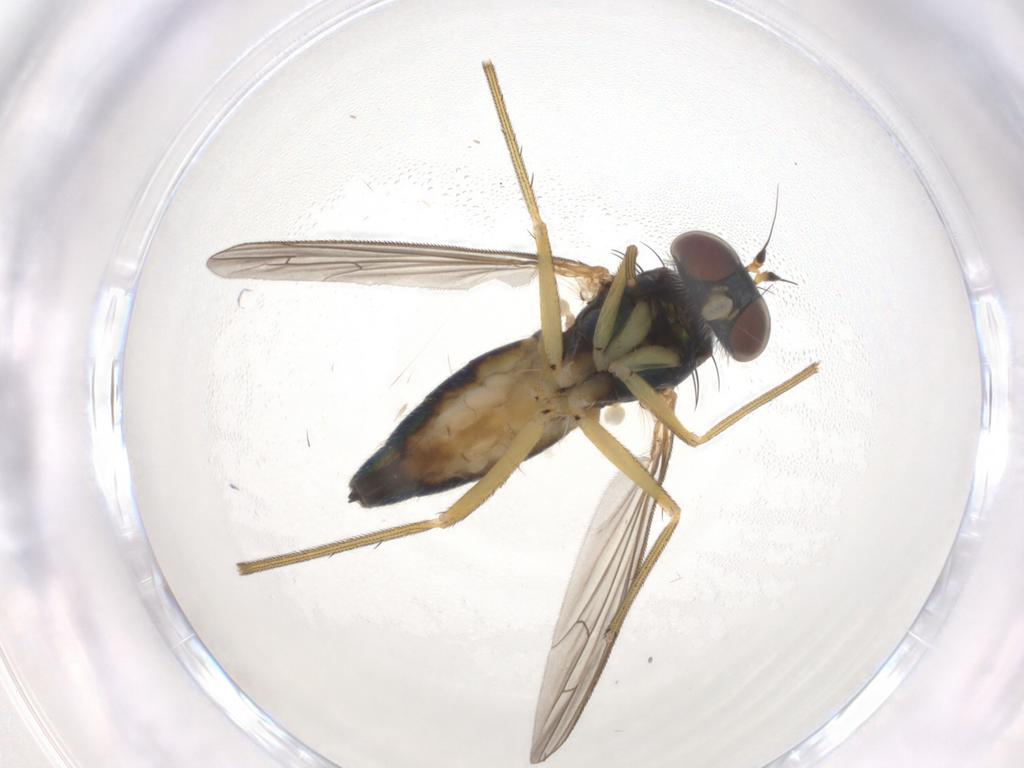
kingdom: Animalia
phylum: Arthropoda
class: Insecta
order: Diptera
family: Dolichopodidae
